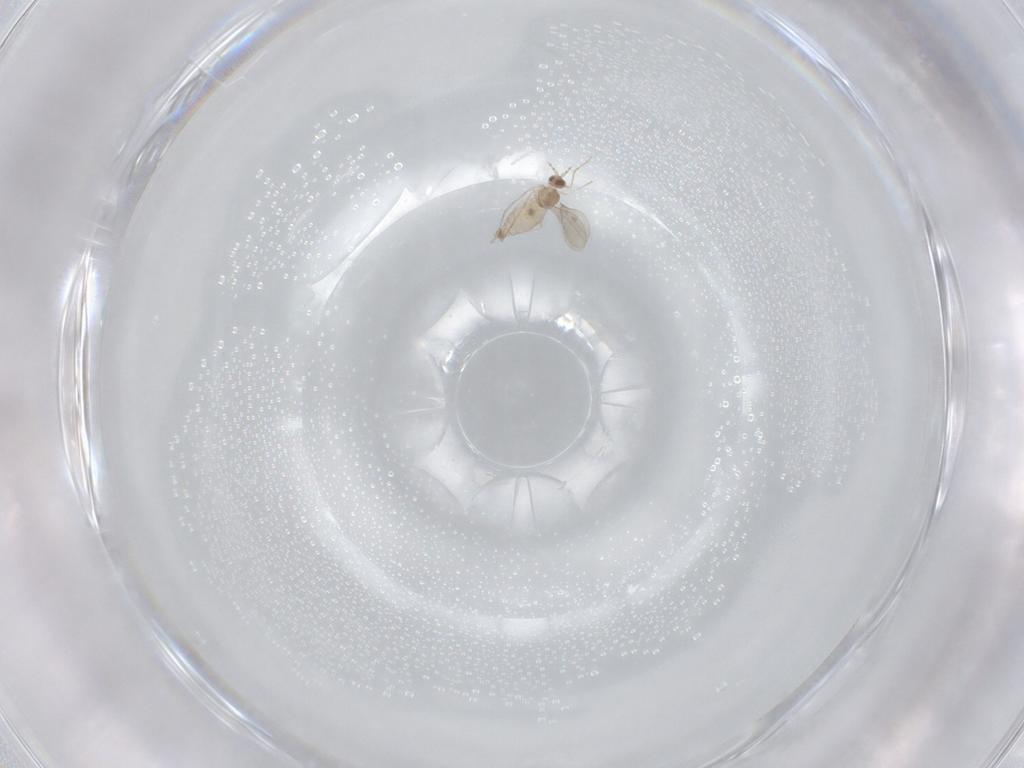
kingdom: Animalia
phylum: Arthropoda
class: Insecta
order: Diptera
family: Cecidomyiidae
